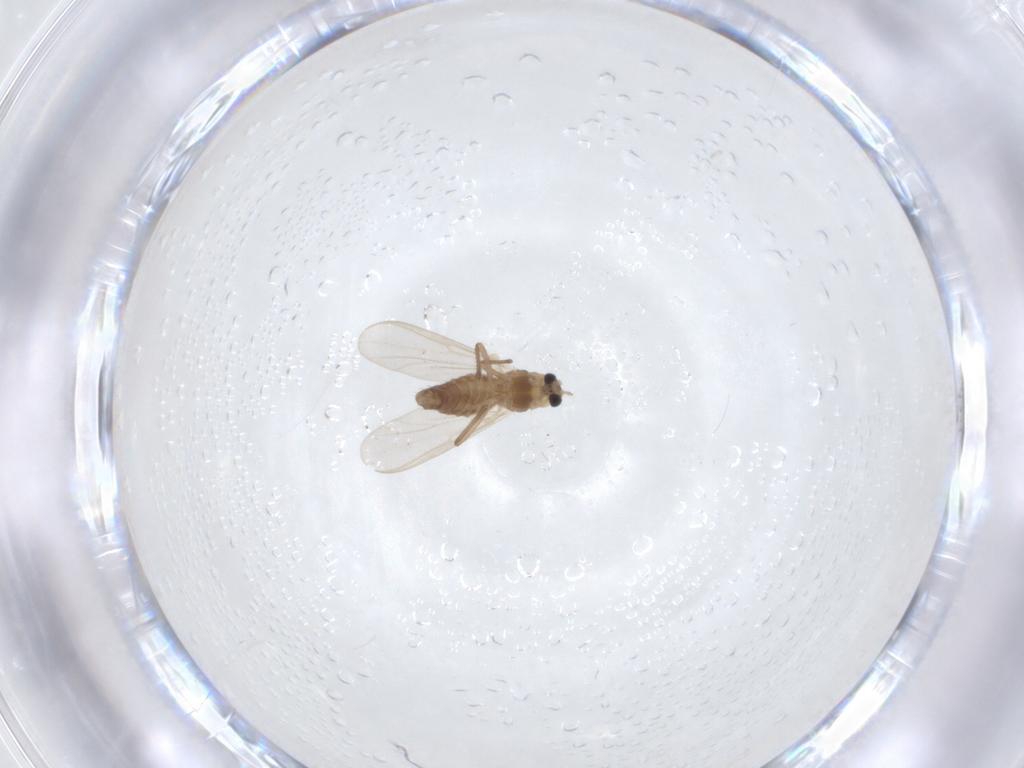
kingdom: Animalia
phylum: Arthropoda
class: Insecta
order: Diptera
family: Chironomidae
